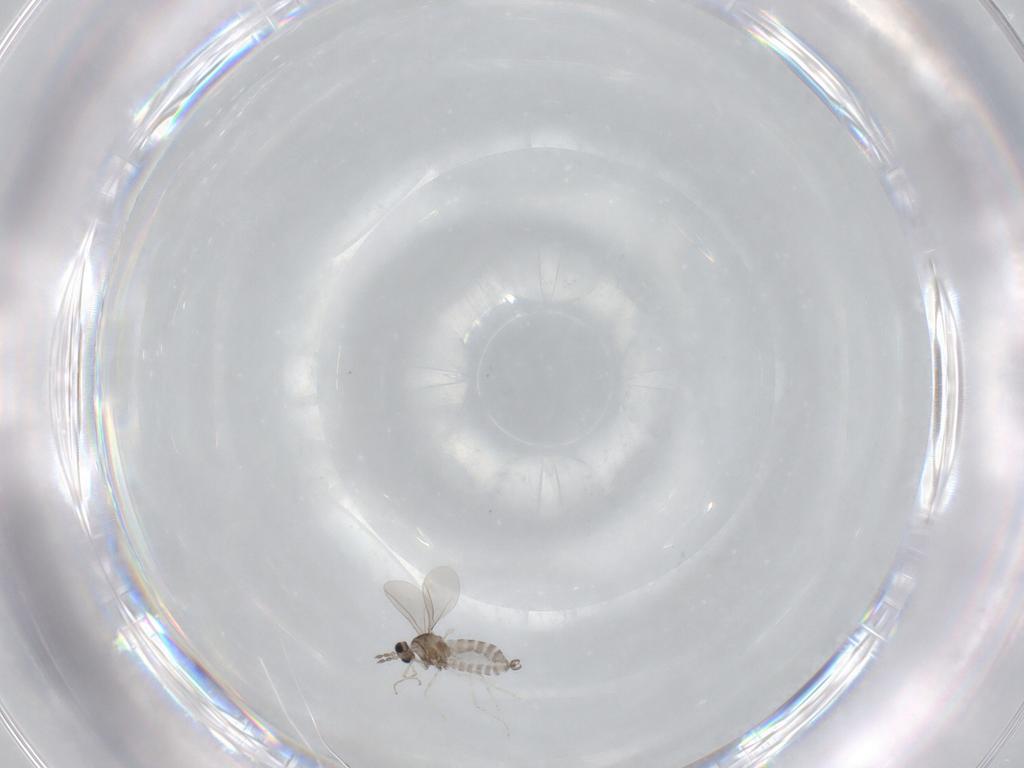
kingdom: Animalia
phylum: Arthropoda
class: Insecta
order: Diptera
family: Cecidomyiidae
